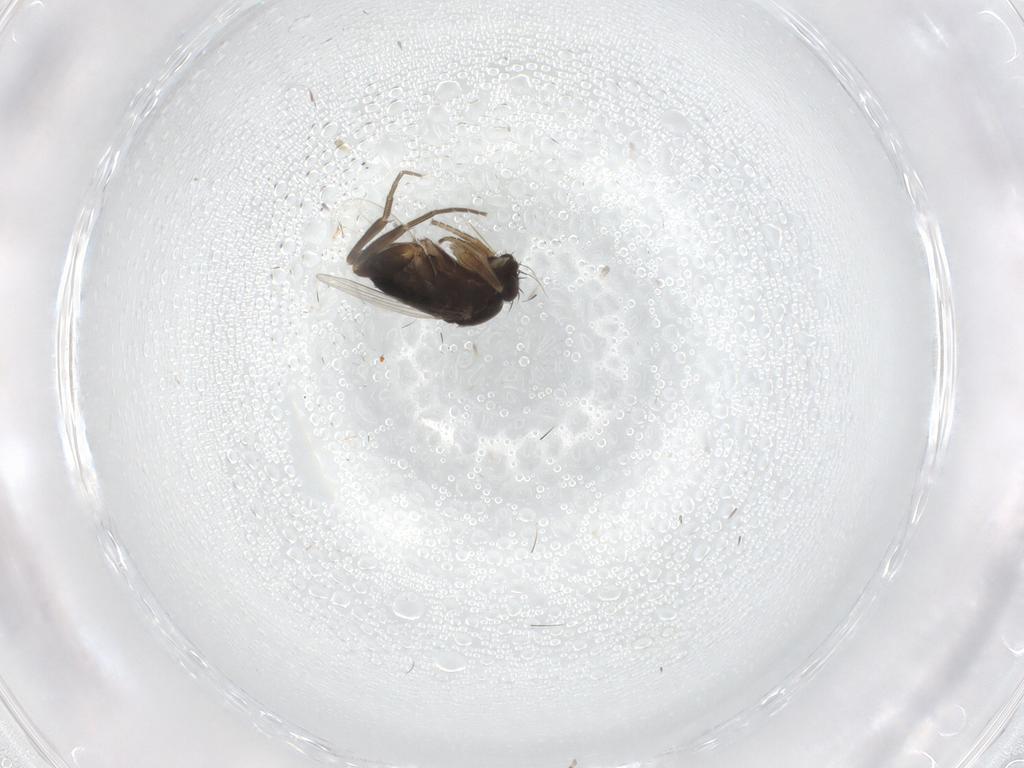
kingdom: Animalia
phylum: Arthropoda
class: Insecta
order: Diptera
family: Phoridae
